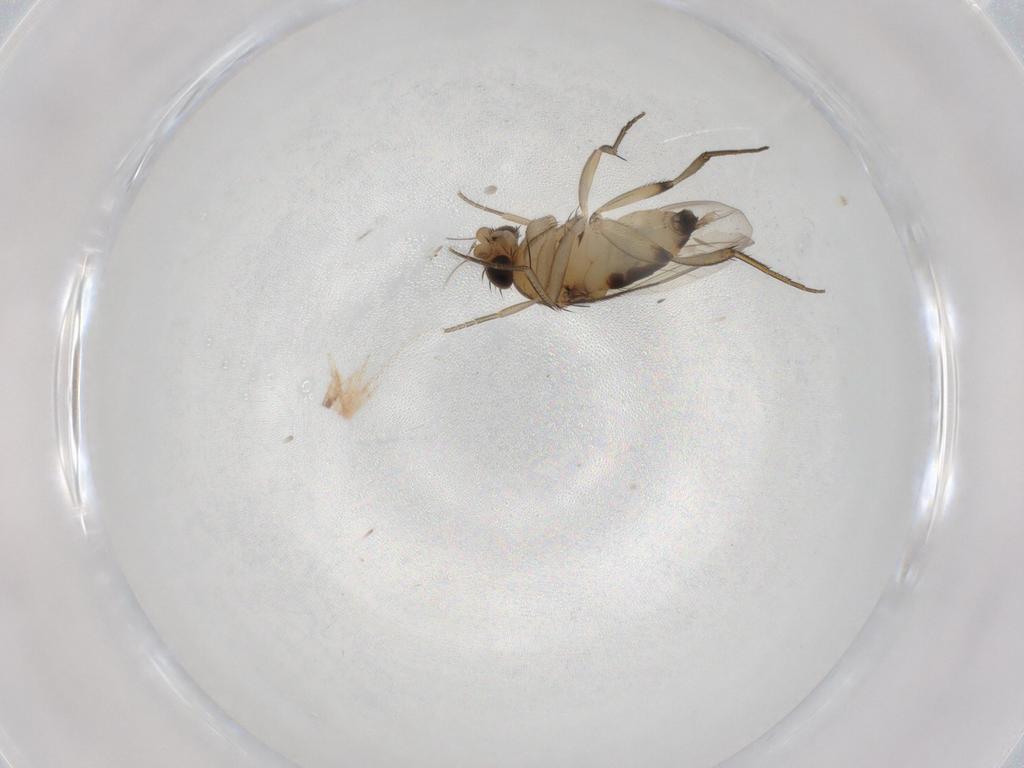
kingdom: Animalia
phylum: Arthropoda
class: Insecta
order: Diptera
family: Phoridae
